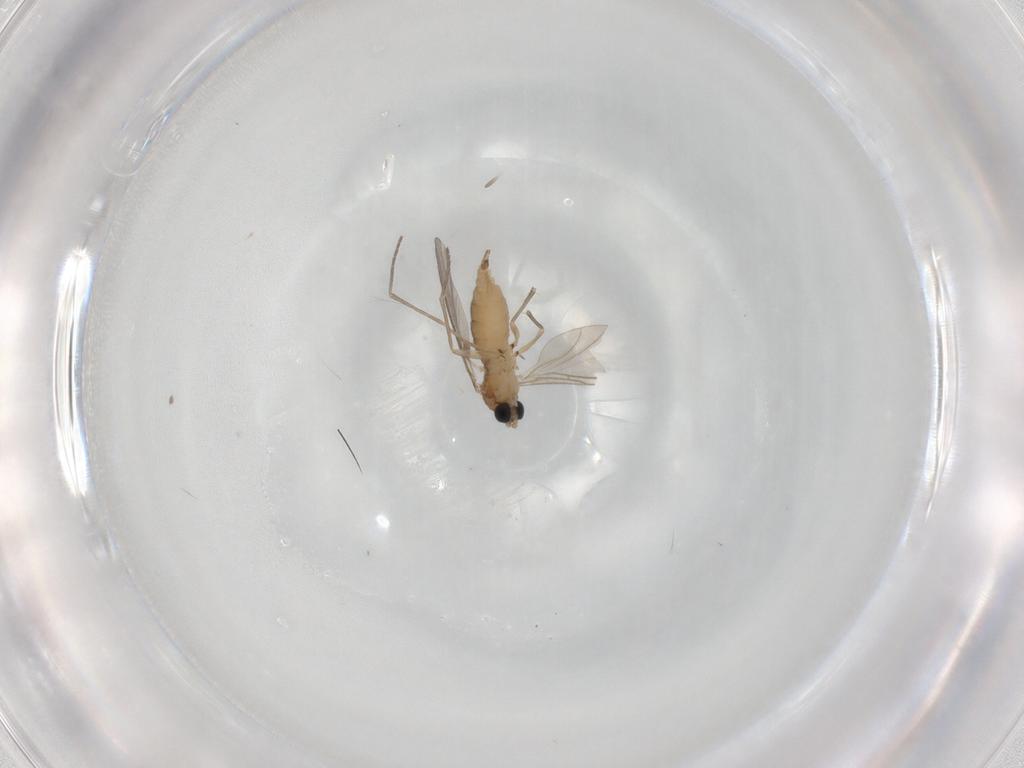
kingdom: Animalia
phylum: Arthropoda
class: Insecta
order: Diptera
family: Sciaridae
